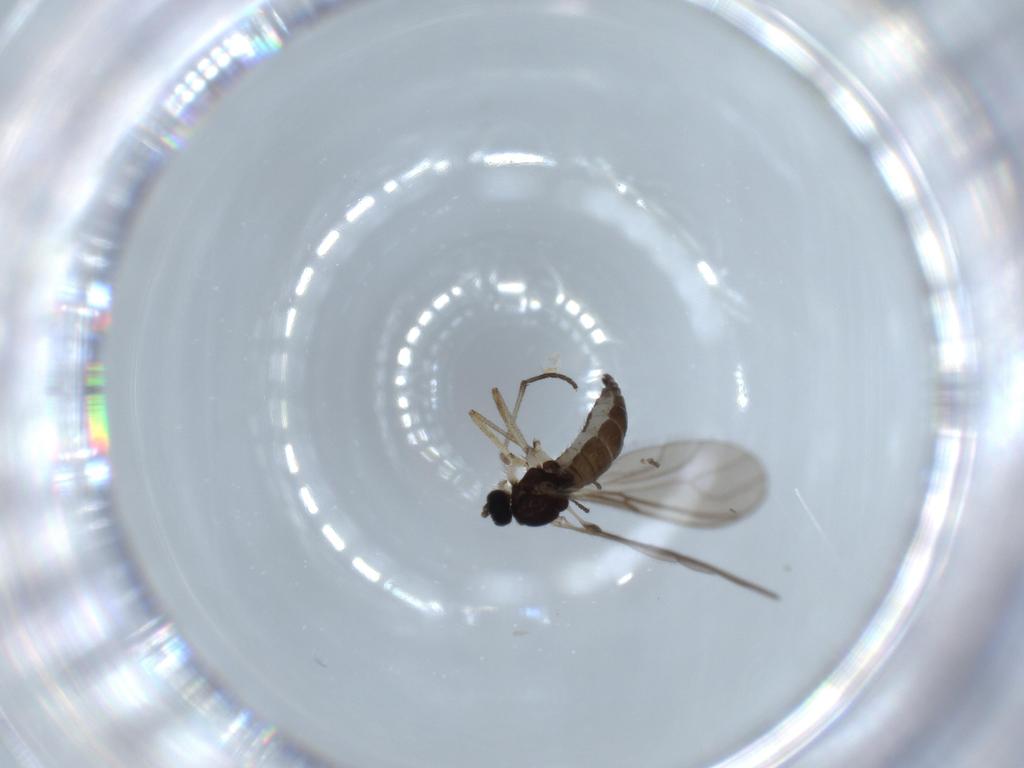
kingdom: Animalia
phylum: Arthropoda
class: Insecta
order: Diptera
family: Sciaridae
